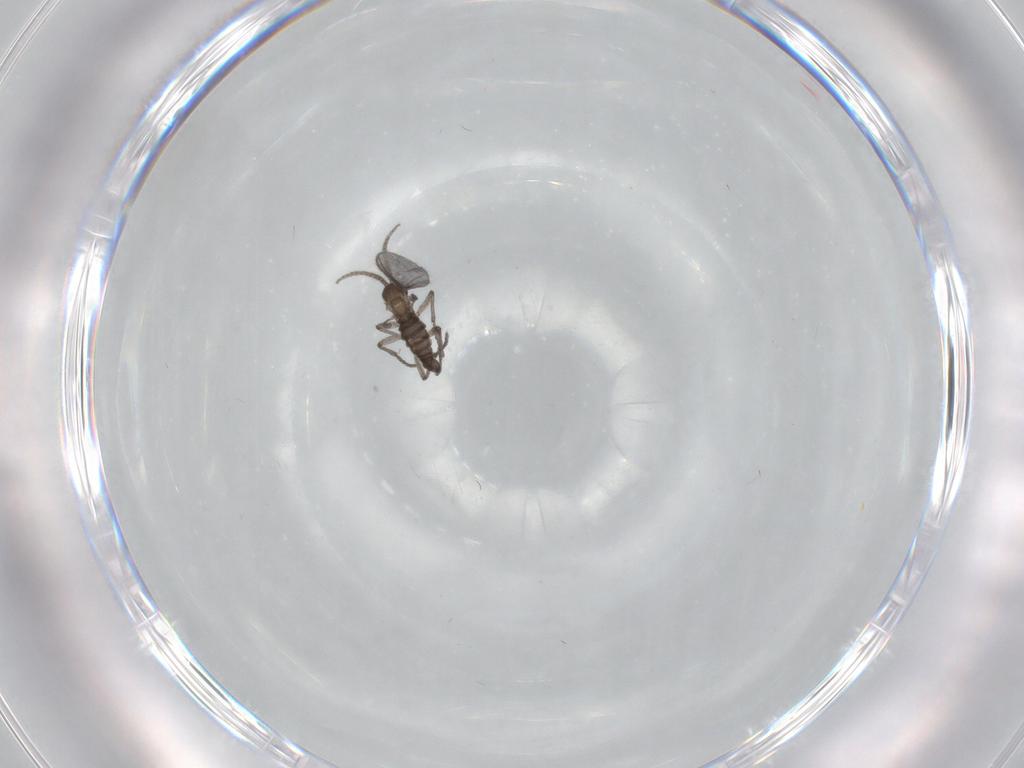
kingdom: Animalia
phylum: Arthropoda
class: Insecta
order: Diptera
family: Sciaridae
